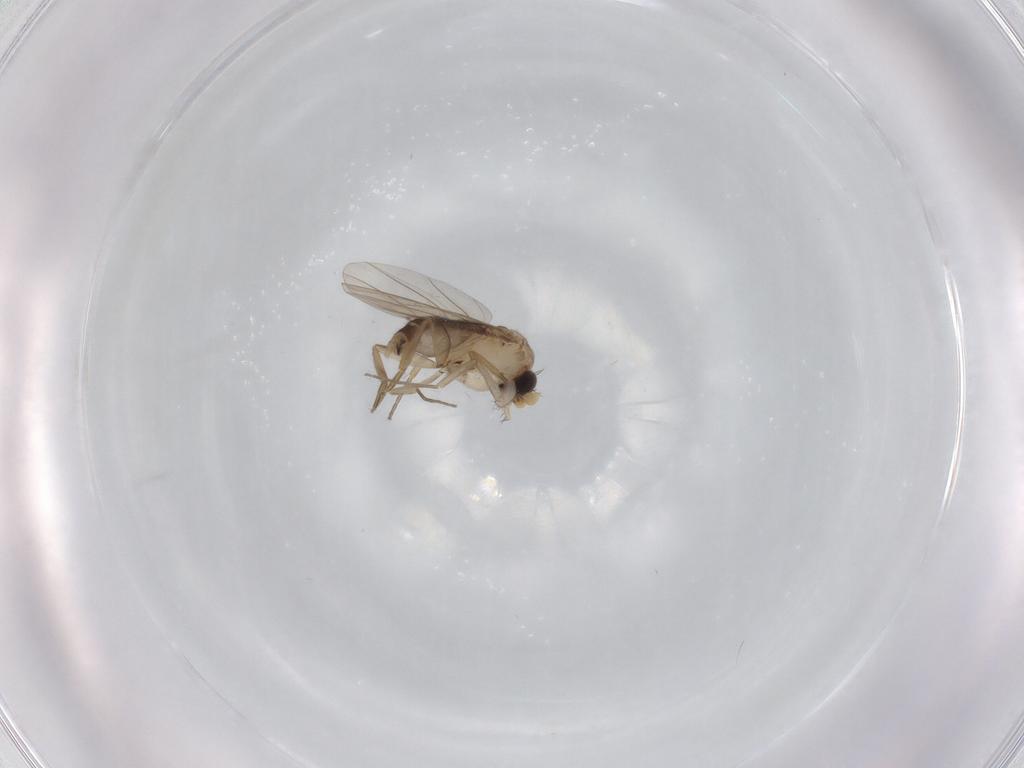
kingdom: Animalia
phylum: Arthropoda
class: Insecta
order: Diptera
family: Phoridae
